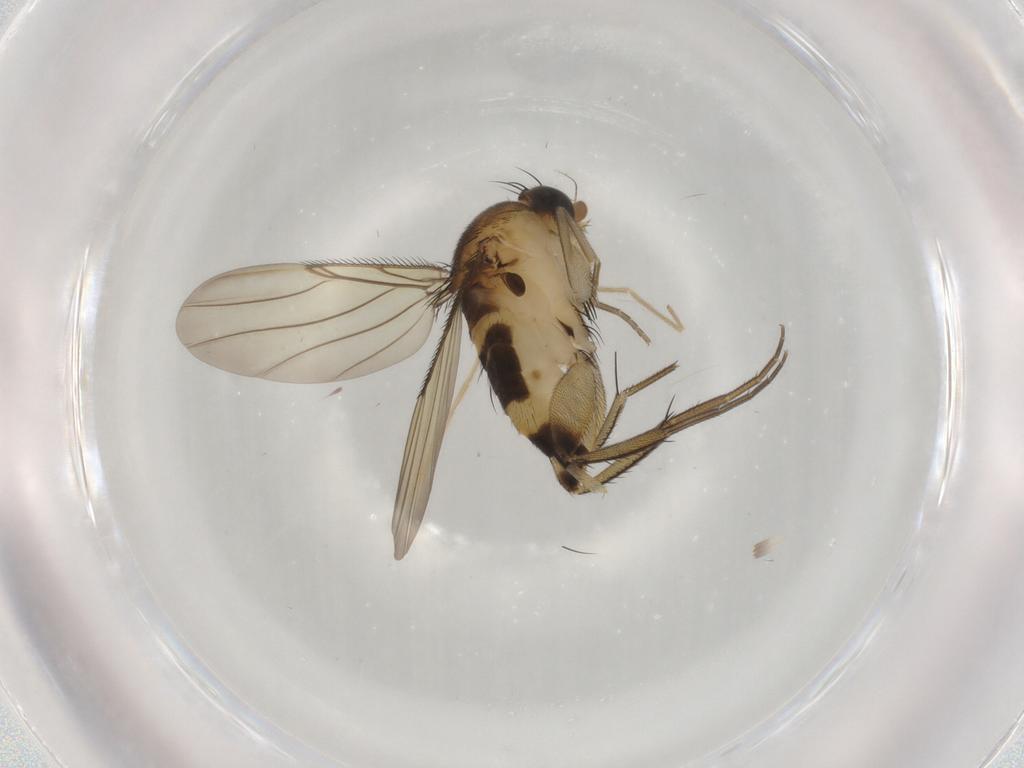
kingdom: Animalia
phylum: Arthropoda
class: Insecta
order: Diptera
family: Phoridae
